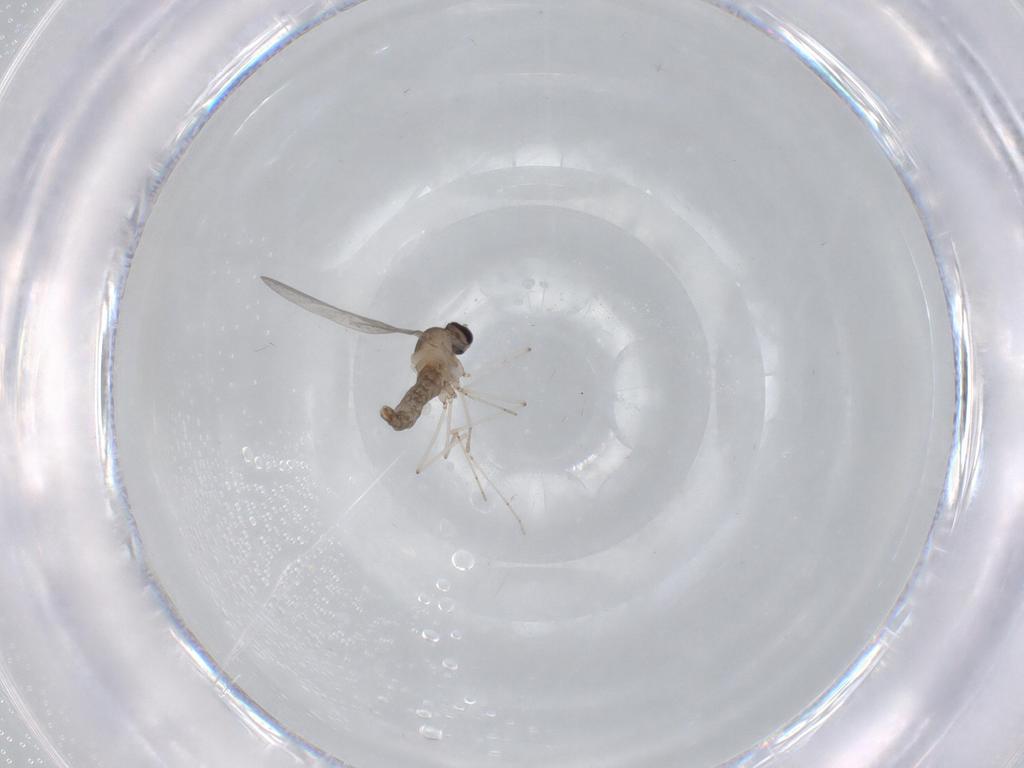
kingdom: Animalia
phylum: Arthropoda
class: Insecta
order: Diptera
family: Cecidomyiidae
